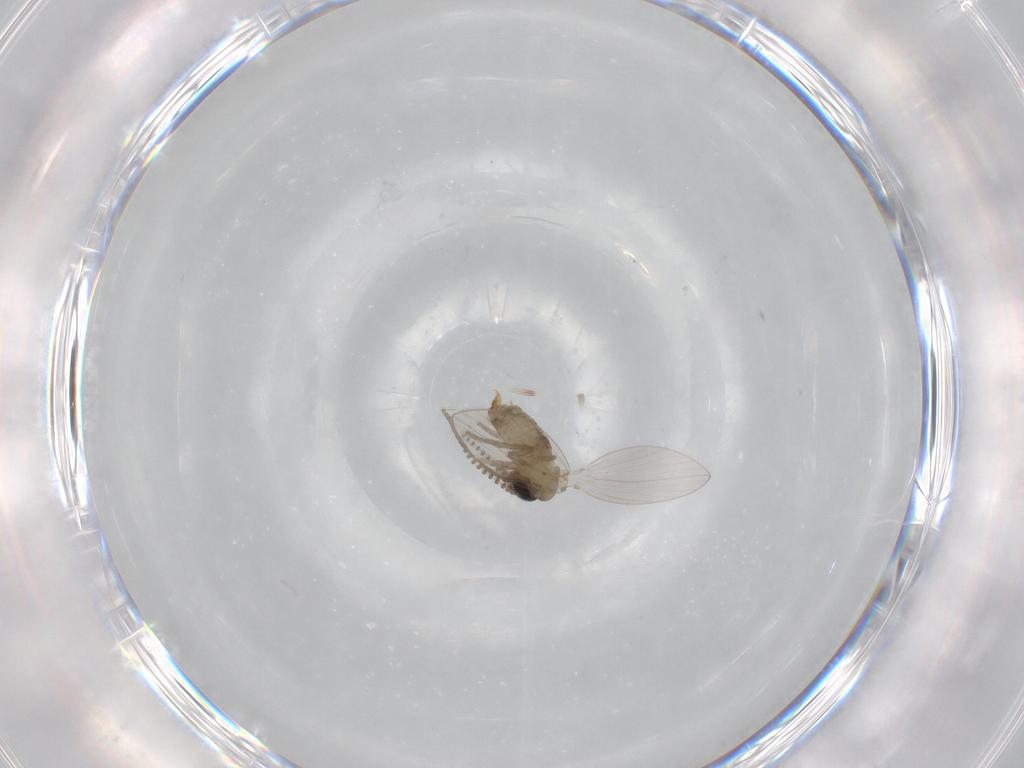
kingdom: Animalia
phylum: Arthropoda
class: Insecta
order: Diptera
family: Psychodidae
